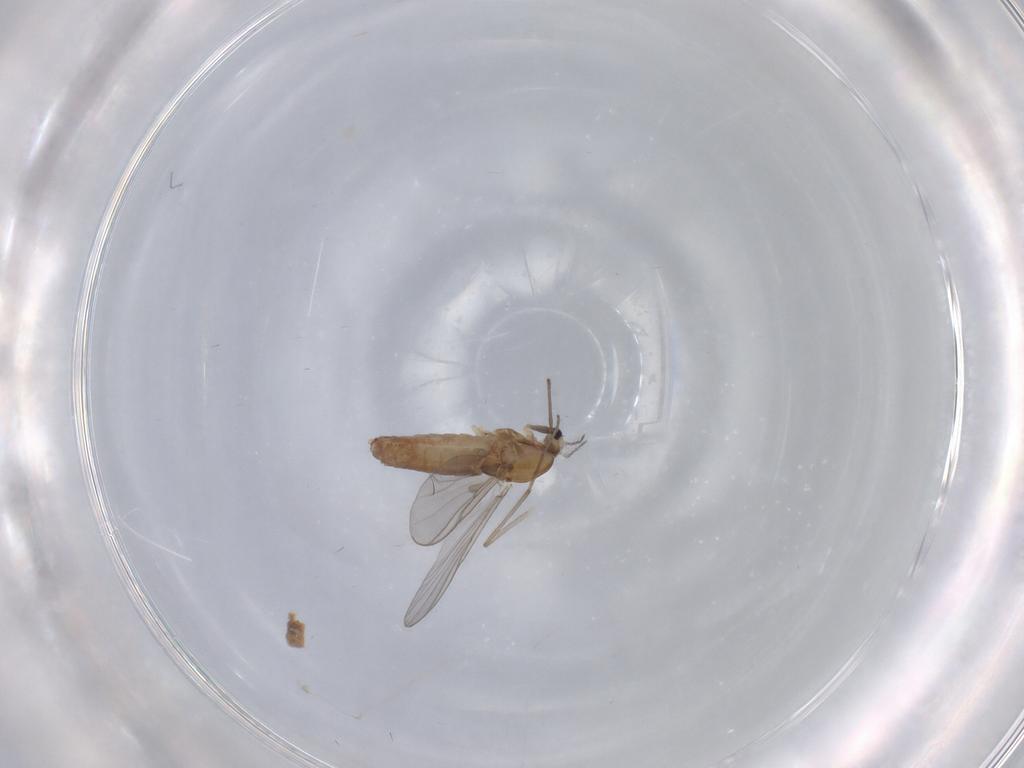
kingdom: Animalia
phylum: Arthropoda
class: Insecta
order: Diptera
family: Chironomidae
